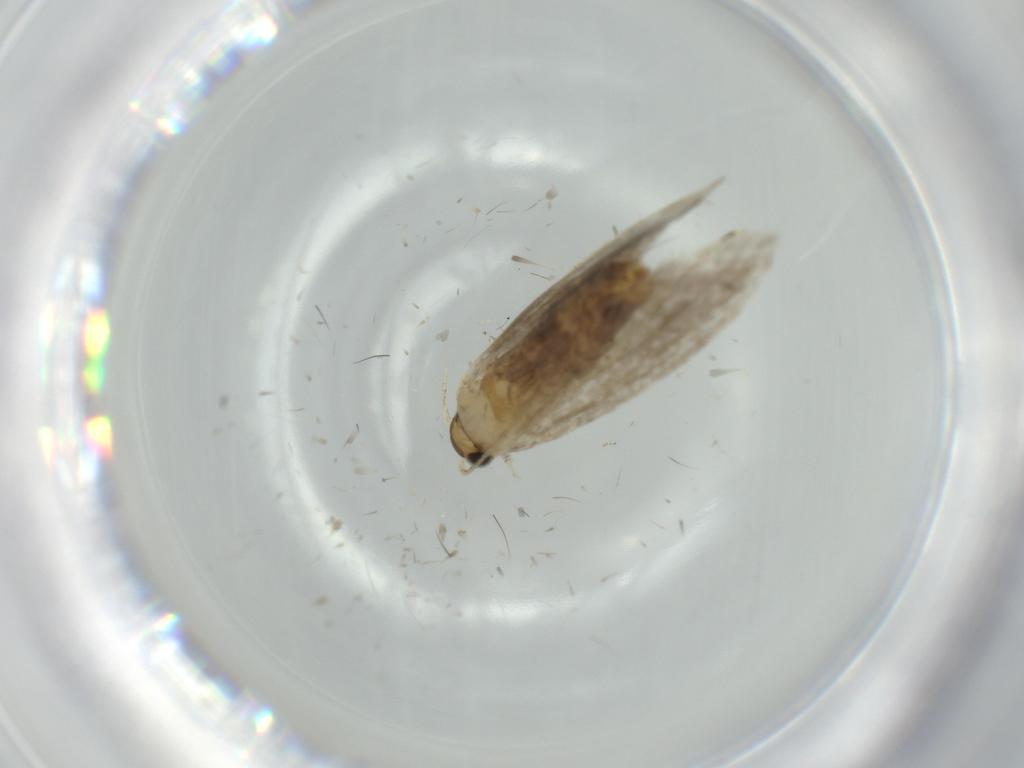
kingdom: Animalia
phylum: Arthropoda
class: Insecta
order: Lepidoptera
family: Tineidae
